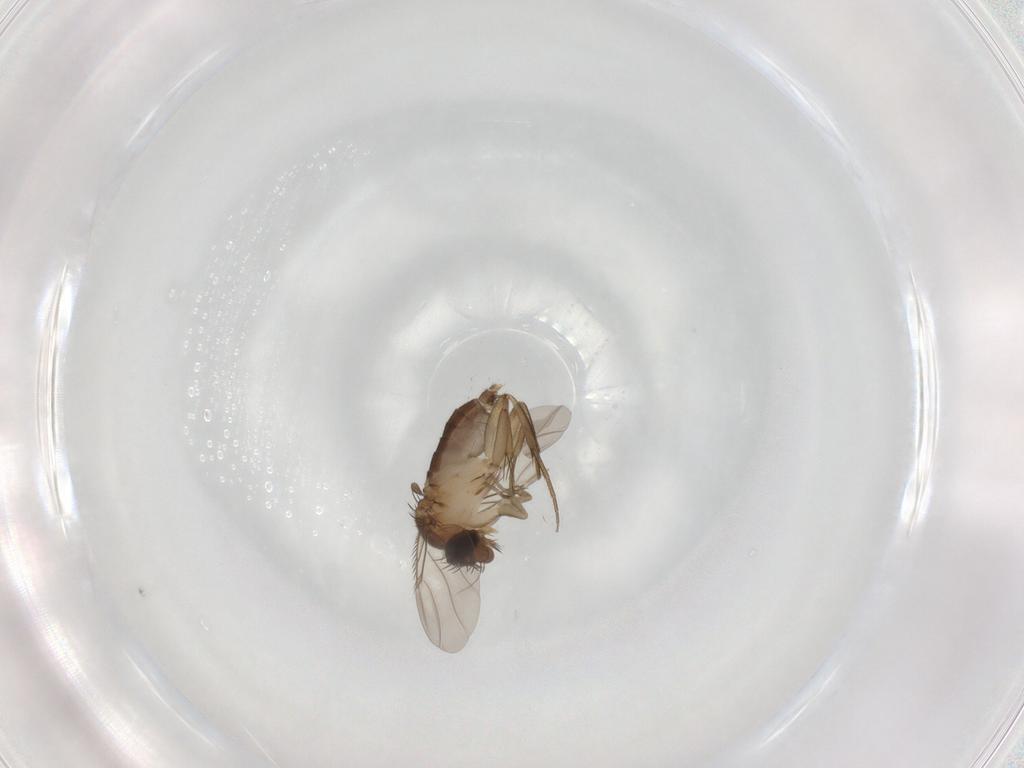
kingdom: Animalia
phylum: Arthropoda
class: Insecta
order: Diptera
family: Phoridae
